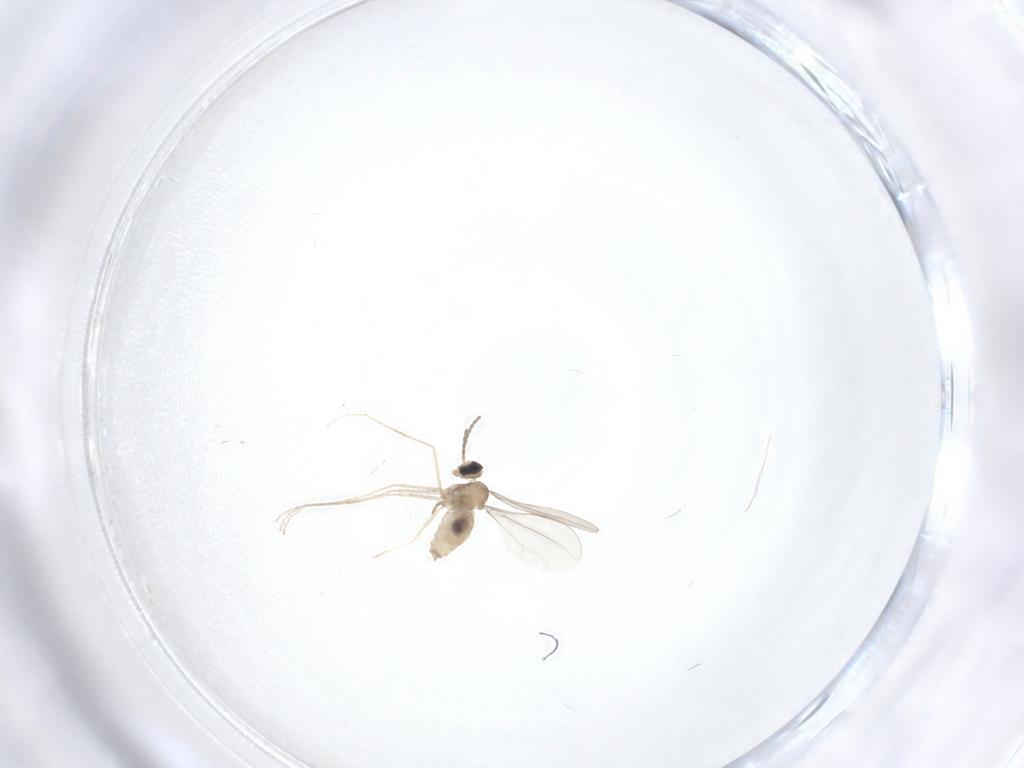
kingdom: Animalia
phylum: Arthropoda
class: Insecta
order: Diptera
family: Cecidomyiidae
